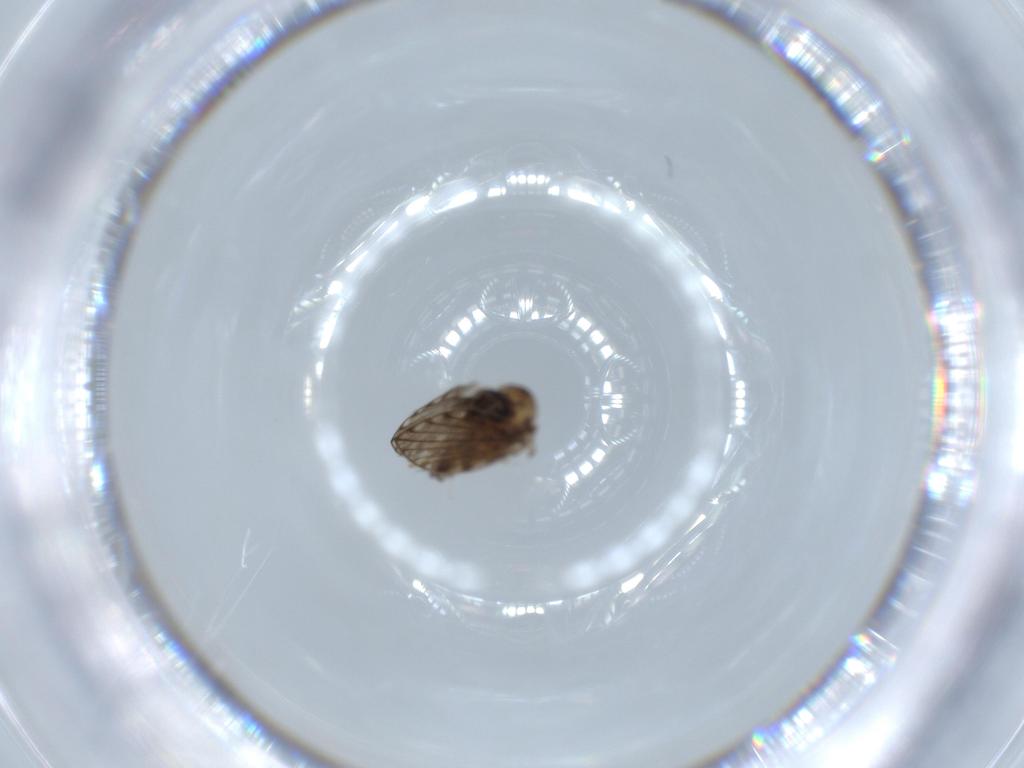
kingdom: Animalia
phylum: Arthropoda
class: Insecta
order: Diptera
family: Psychodidae
